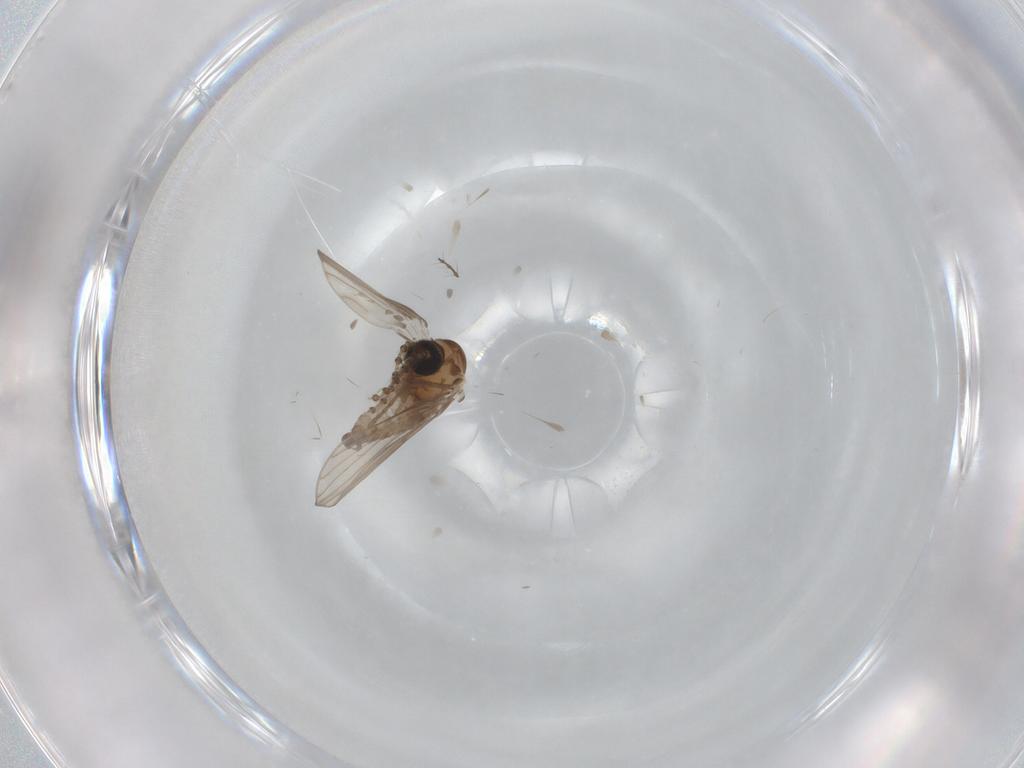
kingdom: Animalia
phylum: Arthropoda
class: Insecta
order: Diptera
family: Psychodidae
